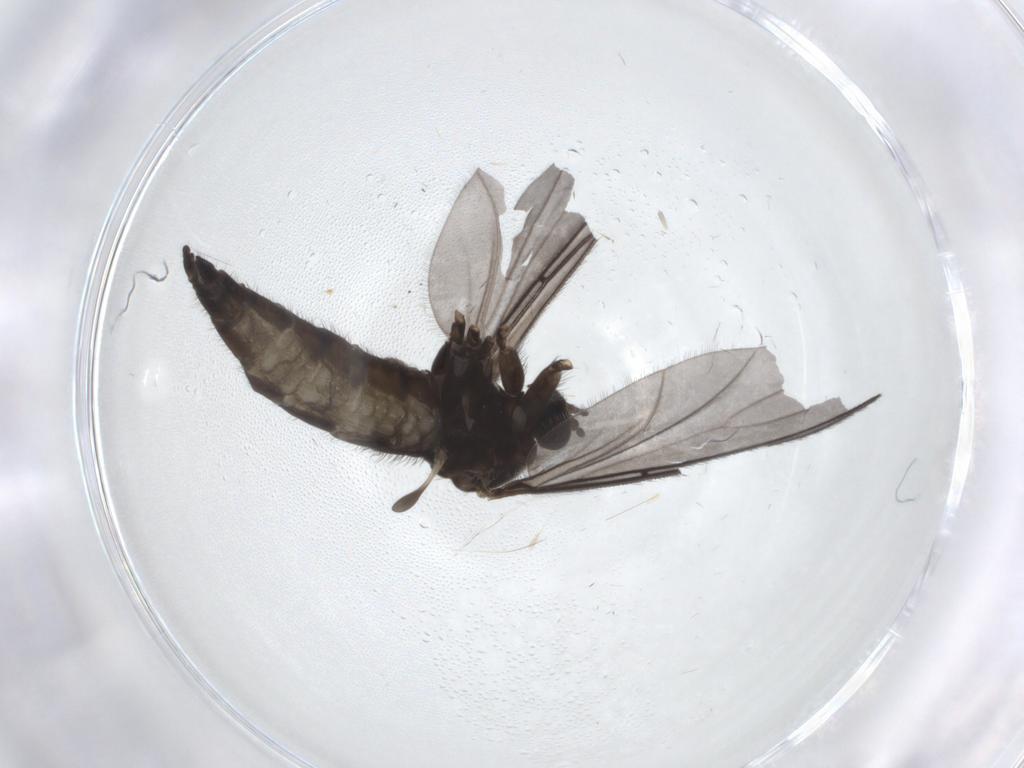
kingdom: Animalia
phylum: Arthropoda
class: Insecta
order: Diptera
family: Sciaridae
